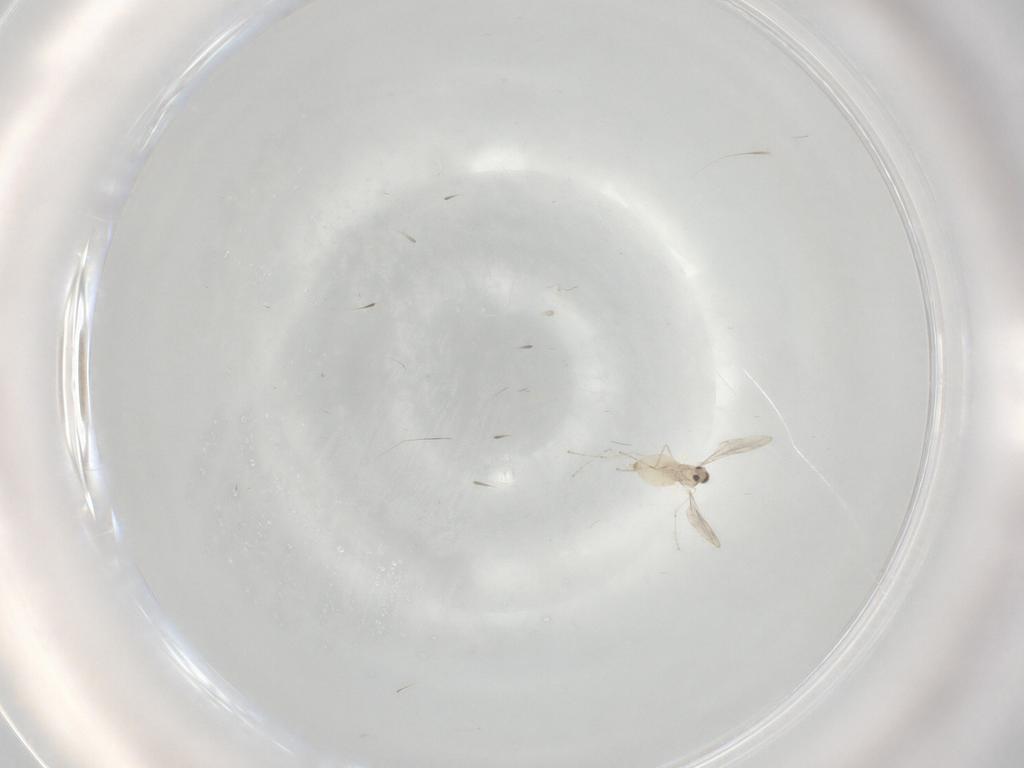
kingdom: Animalia
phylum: Arthropoda
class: Insecta
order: Diptera
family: Cecidomyiidae
